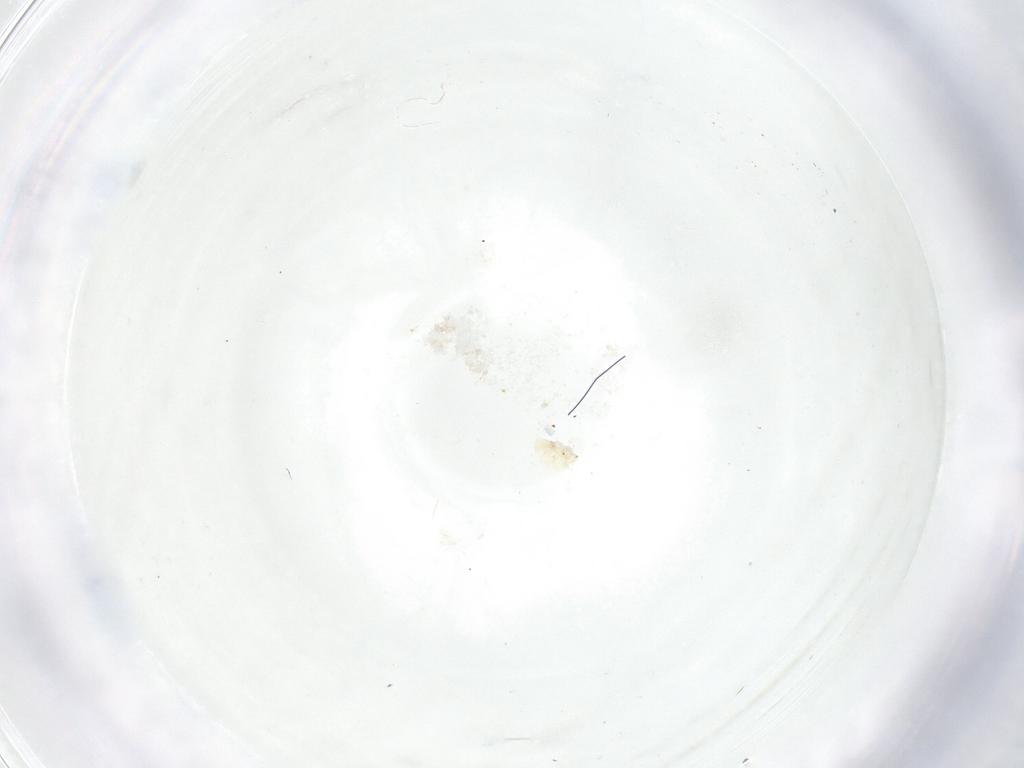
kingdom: Animalia
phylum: Arthropoda
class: Insecta
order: Diptera
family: Fergusoninidae
